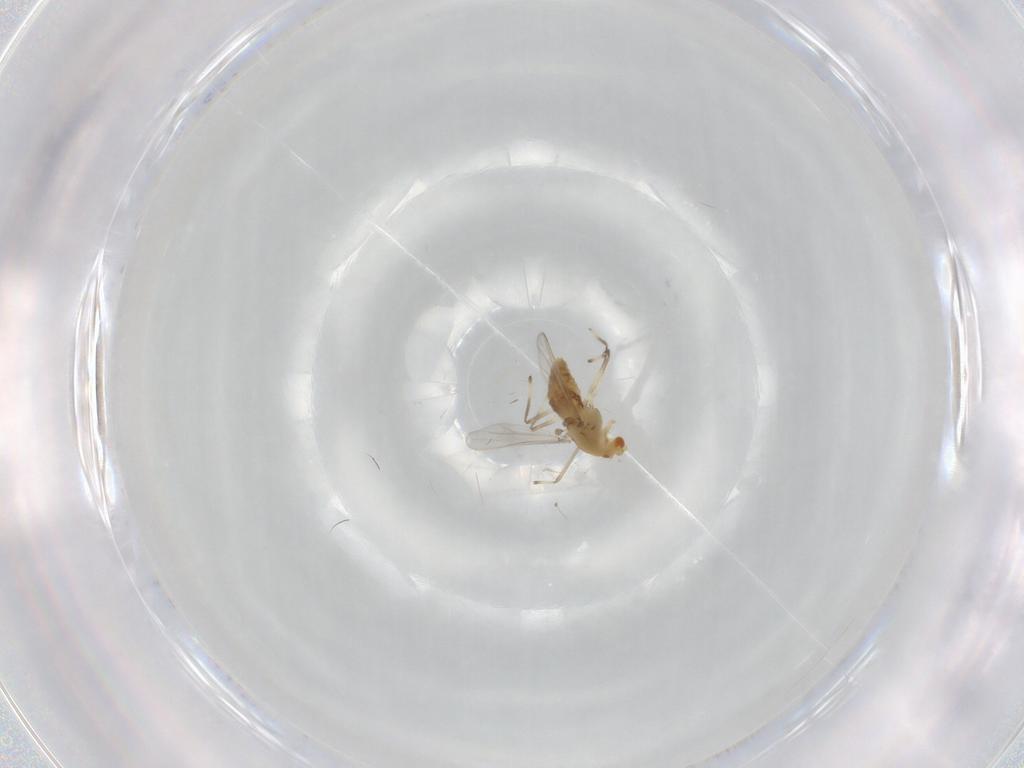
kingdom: Animalia
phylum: Arthropoda
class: Insecta
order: Diptera
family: Chironomidae
